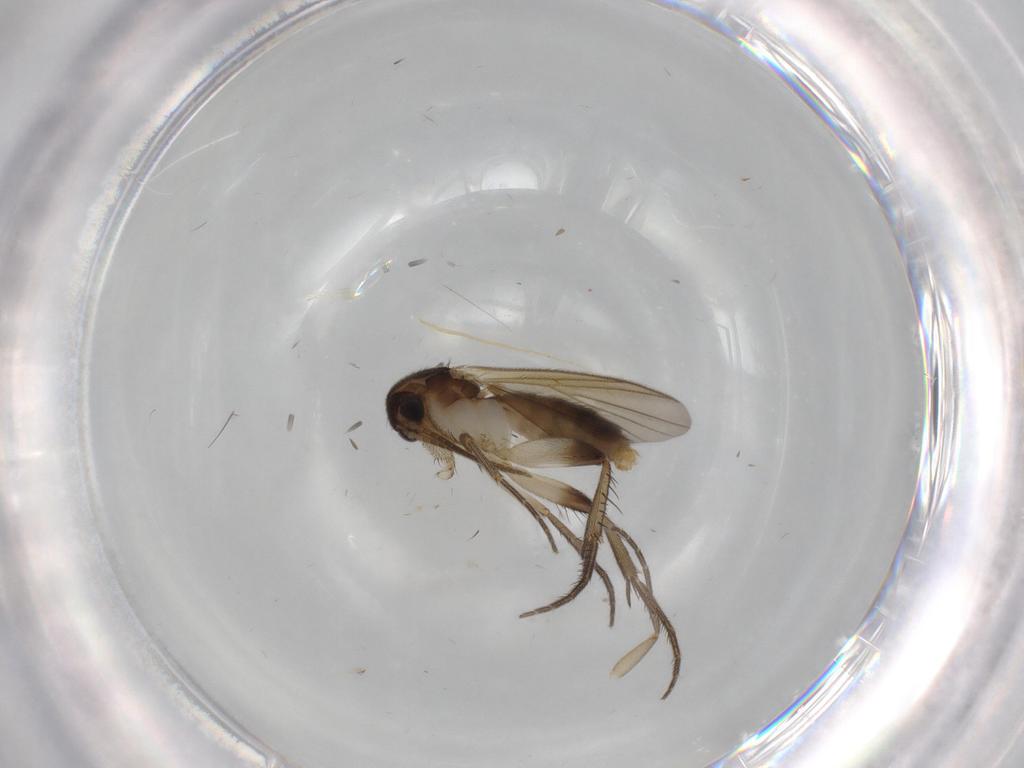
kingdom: Animalia
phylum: Arthropoda
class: Insecta
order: Diptera
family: Mycetophilidae
